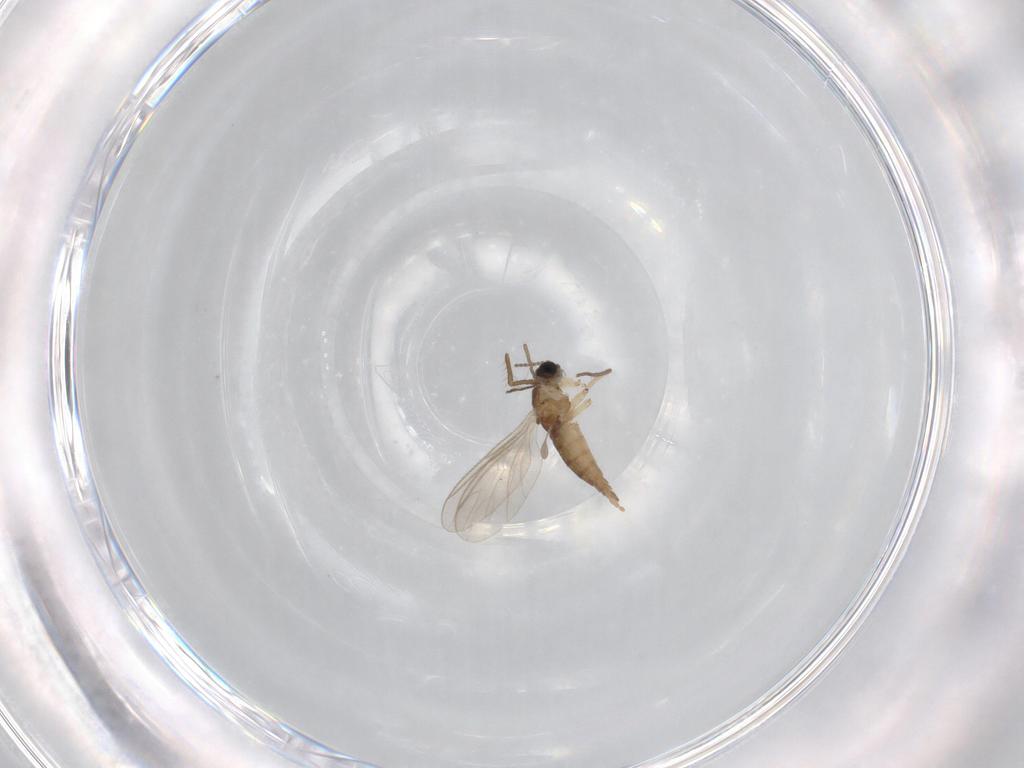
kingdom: Animalia
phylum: Arthropoda
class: Insecta
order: Diptera
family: Sciaridae
